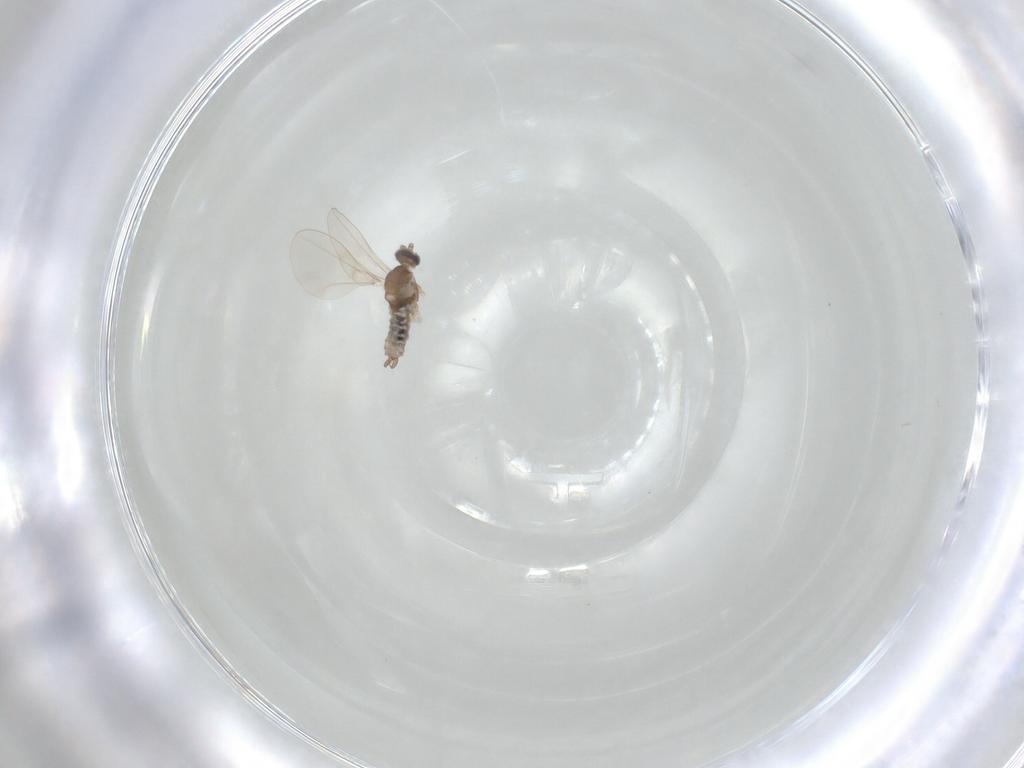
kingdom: Animalia
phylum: Arthropoda
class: Insecta
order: Diptera
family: Cecidomyiidae
